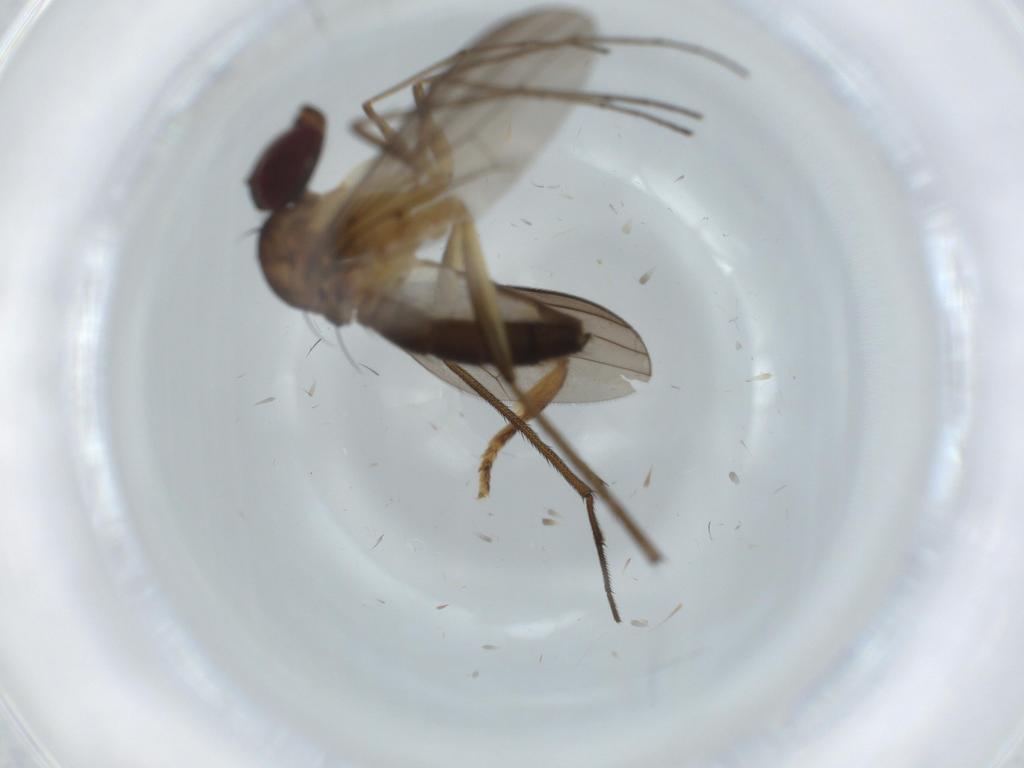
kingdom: Animalia
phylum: Arthropoda
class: Insecta
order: Diptera
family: Dolichopodidae
